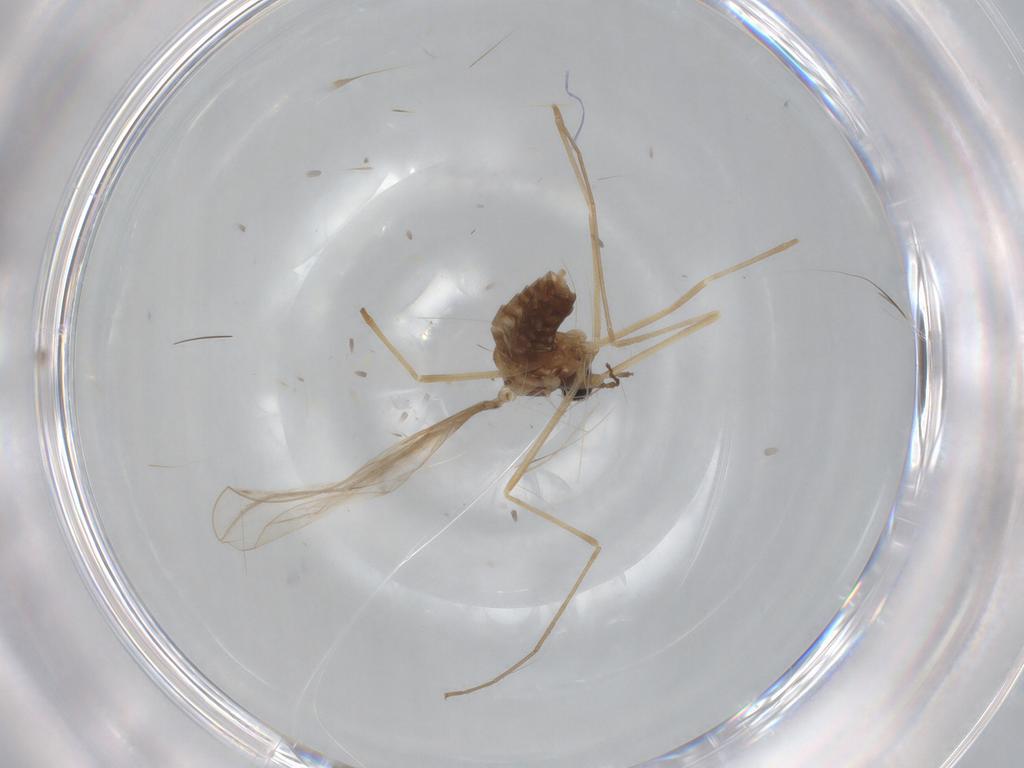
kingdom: Animalia
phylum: Arthropoda
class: Insecta
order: Diptera
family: Cecidomyiidae
